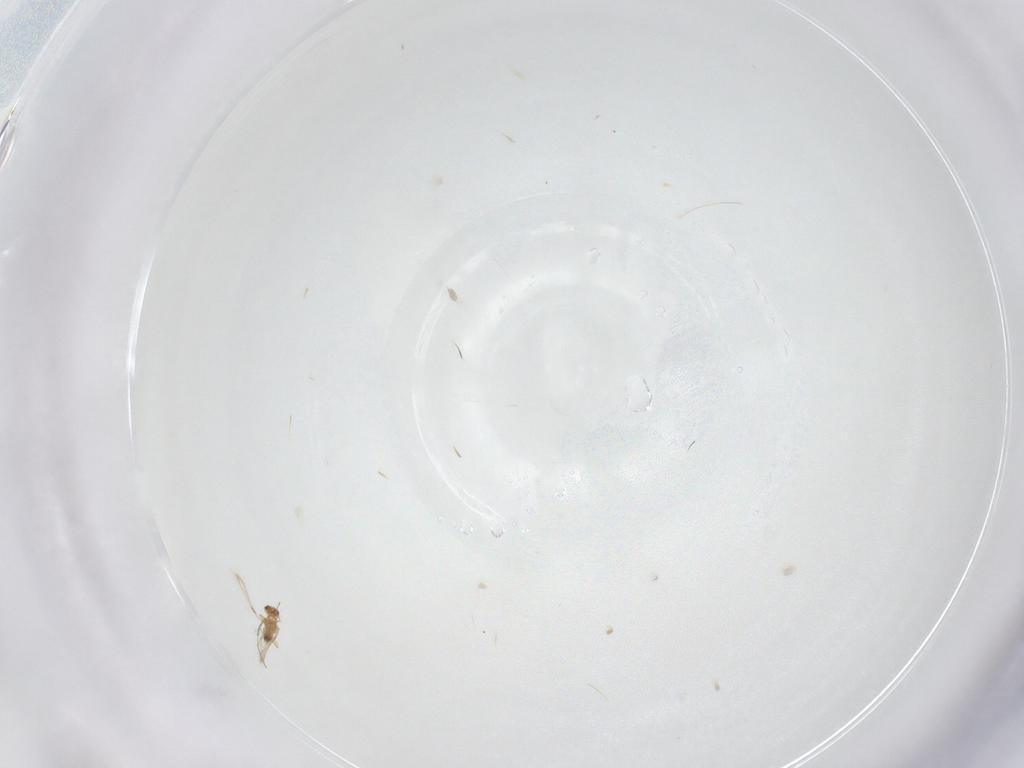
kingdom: Animalia
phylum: Arthropoda
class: Insecta
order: Hymenoptera
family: Mymaridae
